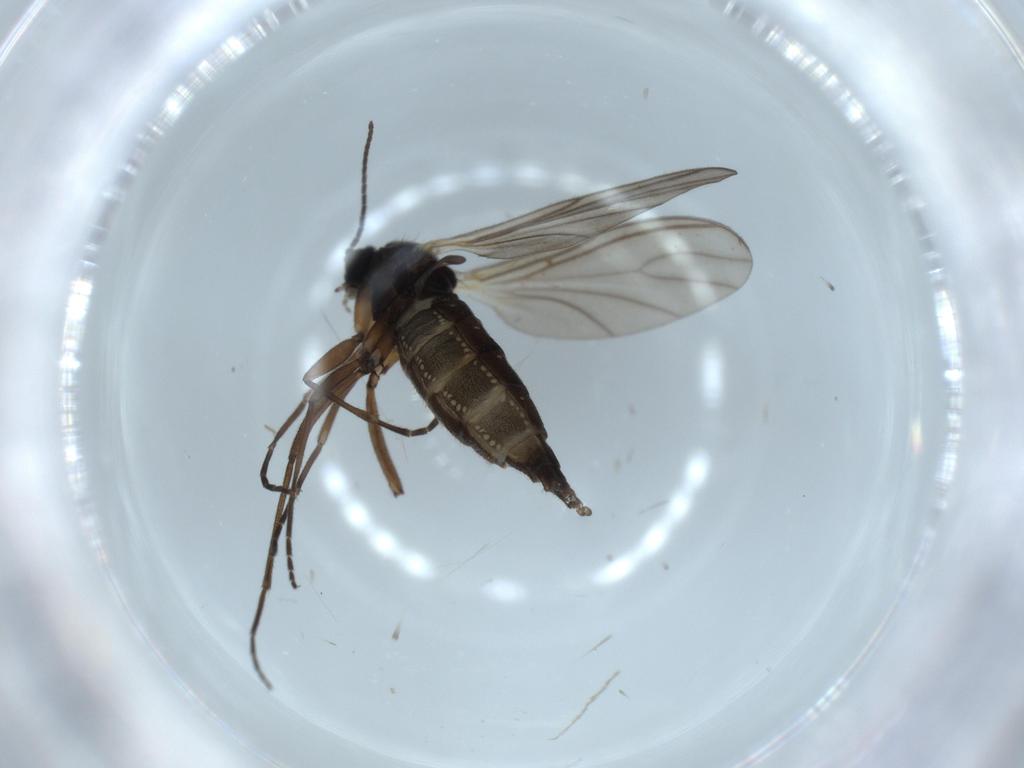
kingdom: Animalia
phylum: Arthropoda
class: Insecta
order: Diptera
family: Sciaridae
